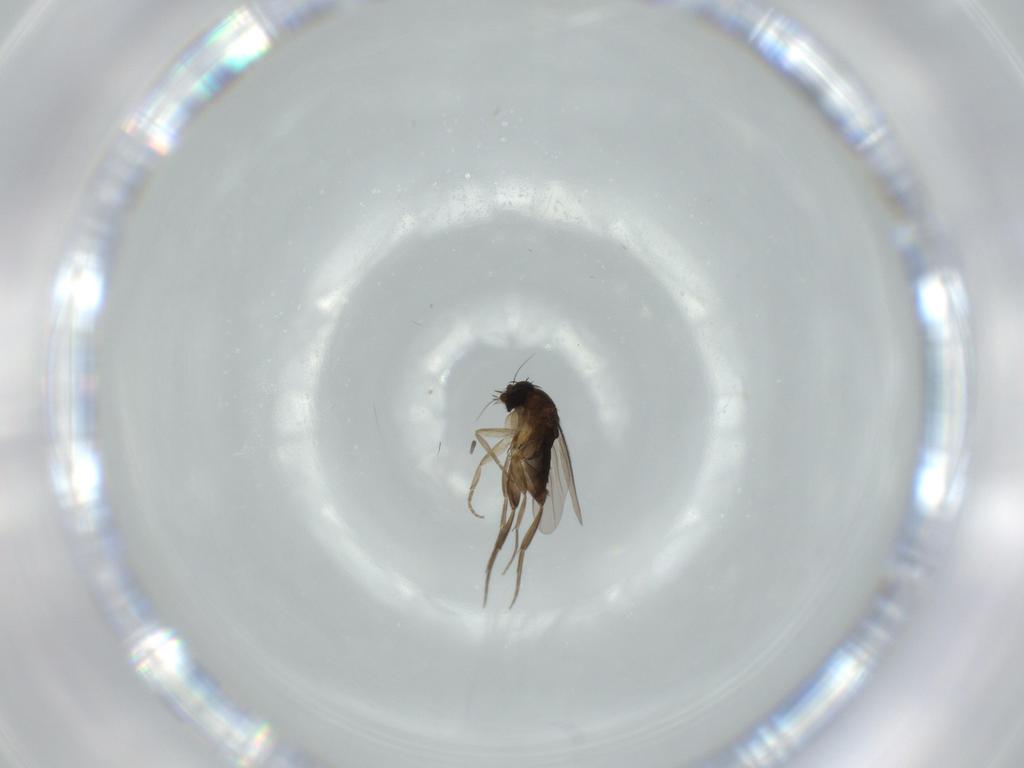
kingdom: Animalia
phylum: Arthropoda
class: Insecta
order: Diptera
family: Phoridae
